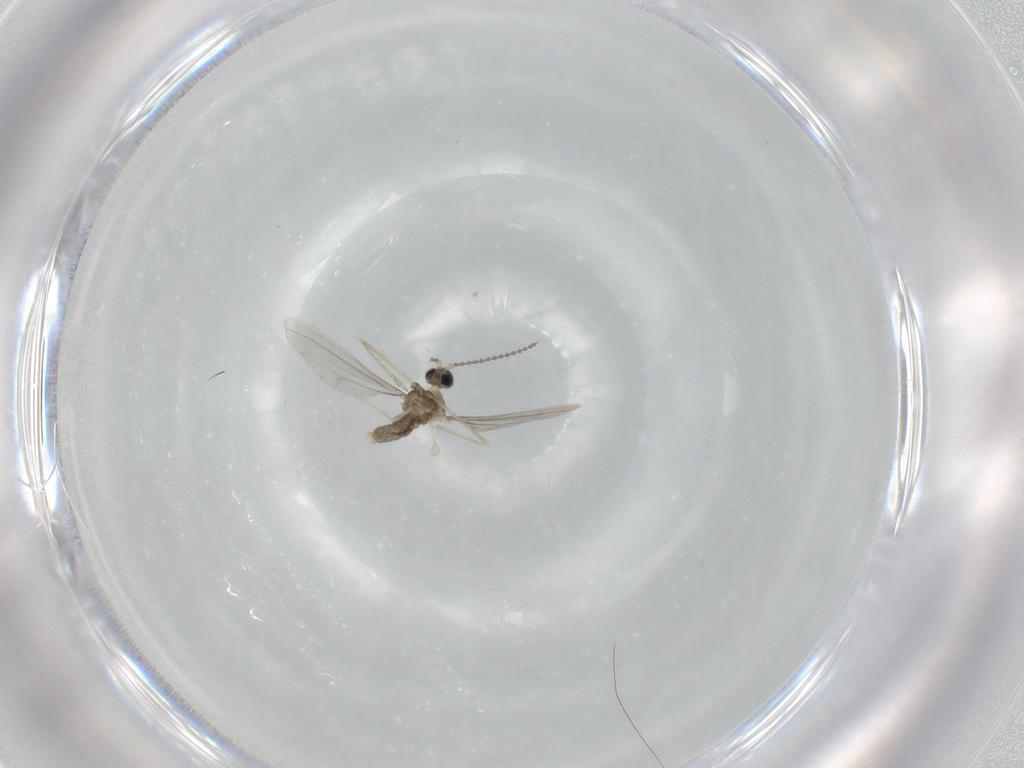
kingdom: Animalia
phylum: Arthropoda
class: Insecta
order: Diptera
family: Cecidomyiidae
